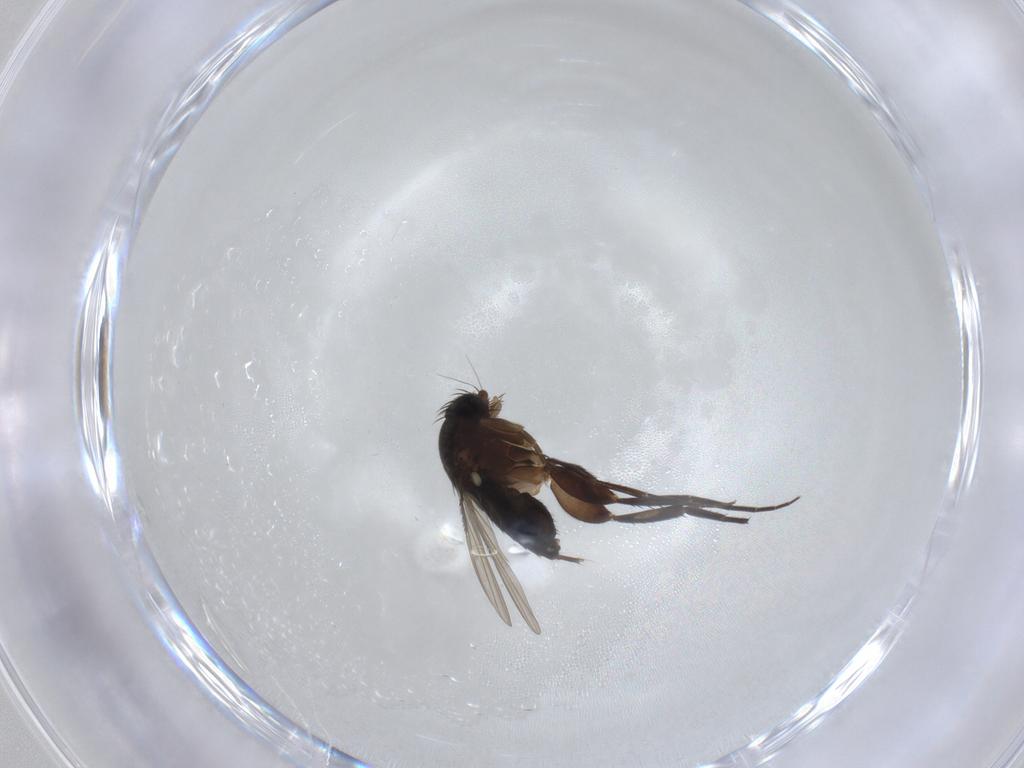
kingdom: Animalia
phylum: Arthropoda
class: Insecta
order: Diptera
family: Phoridae
